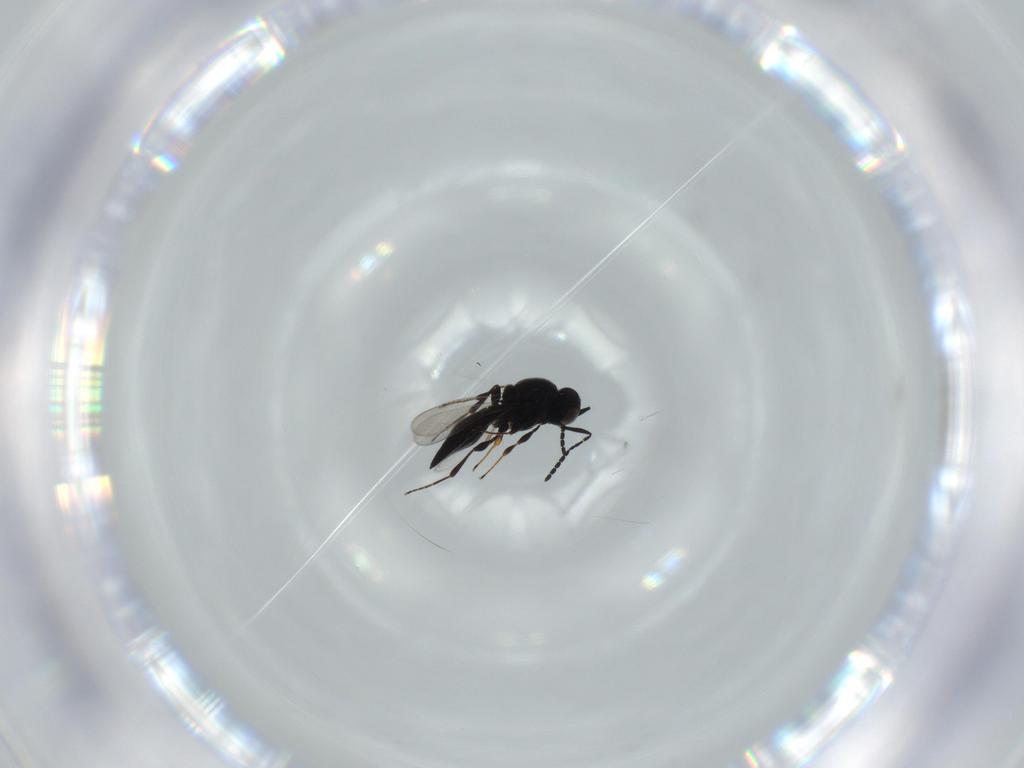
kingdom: Animalia
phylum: Arthropoda
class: Insecta
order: Diptera
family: Mythicomyiidae
